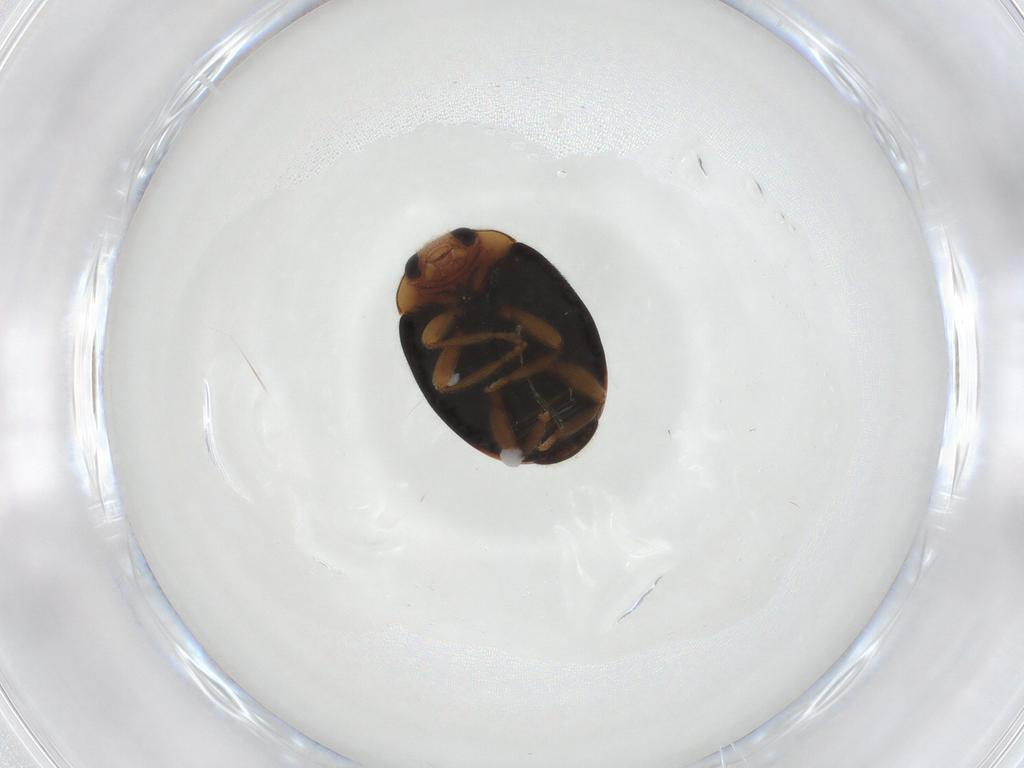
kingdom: Animalia
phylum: Arthropoda
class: Insecta
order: Coleoptera
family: Coccinellidae
